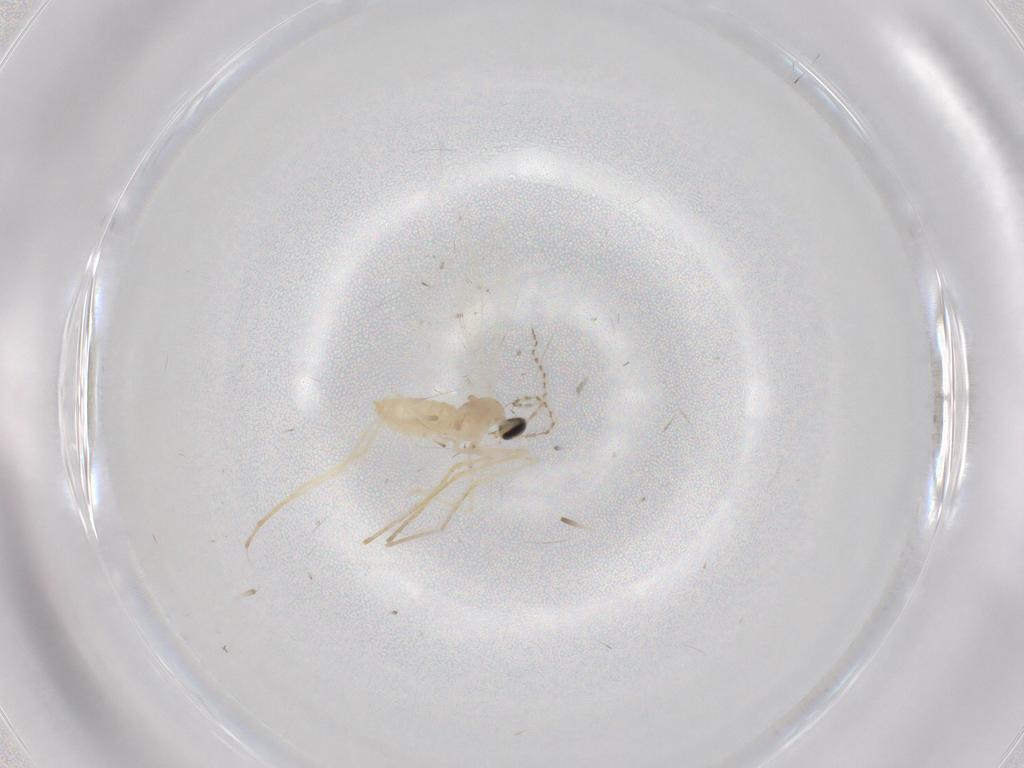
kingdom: Animalia
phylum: Arthropoda
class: Insecta
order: Diptera
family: Cecidomyiidae
